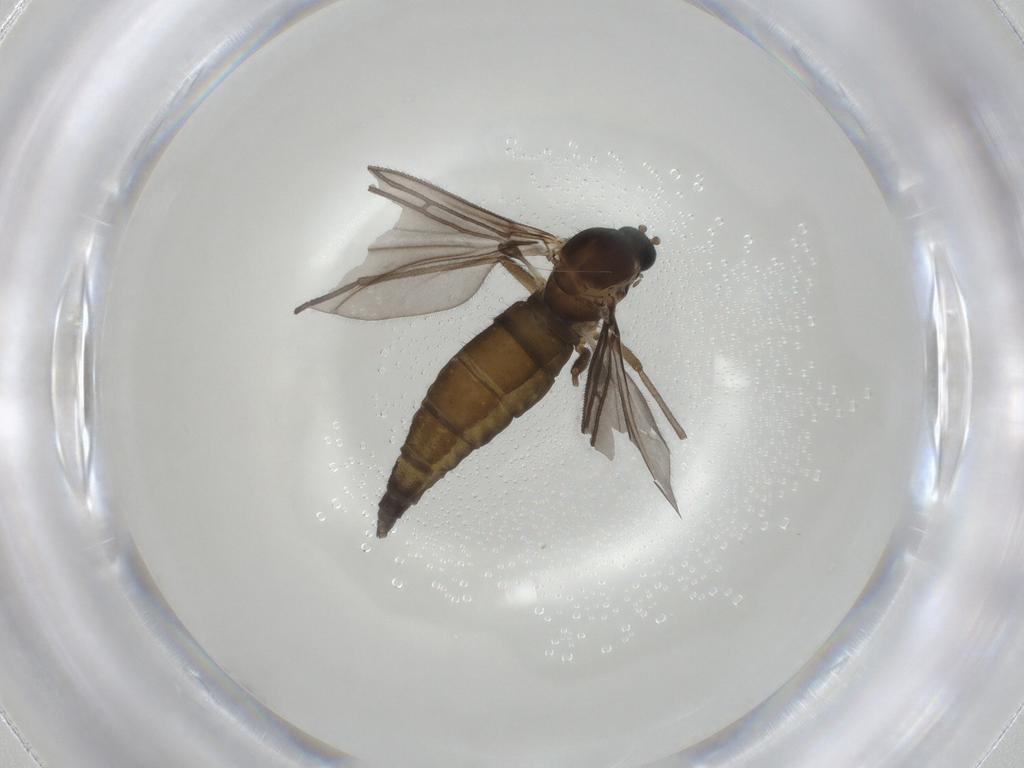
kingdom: Animalia
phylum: Arthropoda
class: Insecta
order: Diptera
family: Sciaridae
